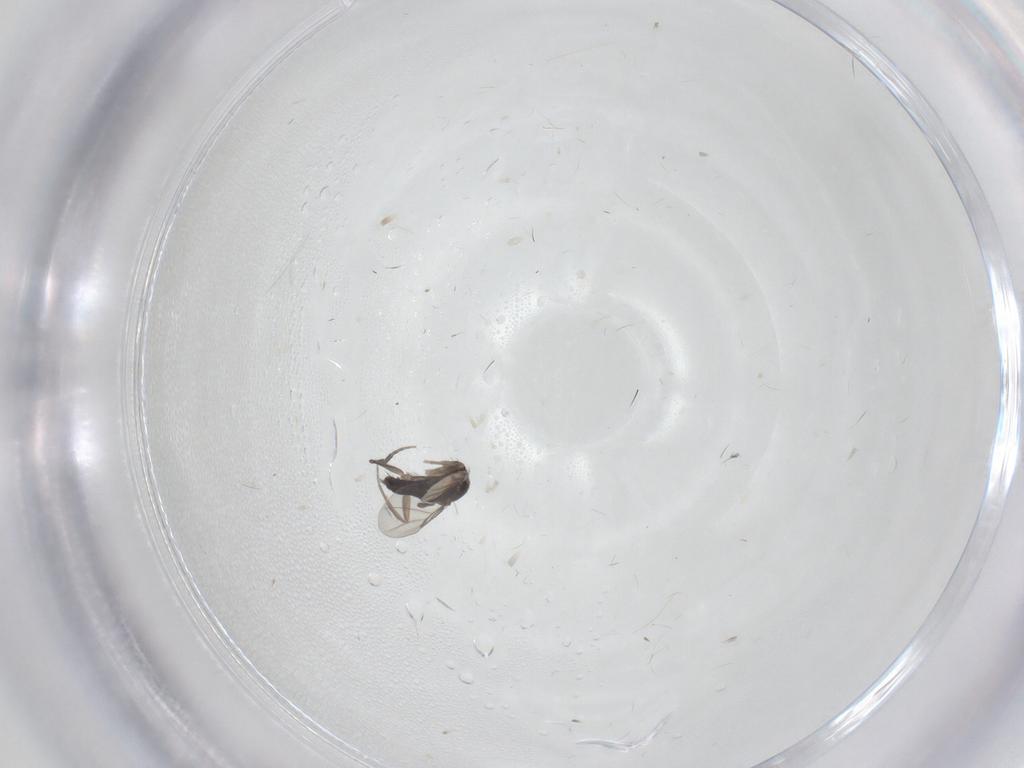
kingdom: Animalia
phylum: Arthropoda
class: Insecta
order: Diptera
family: Phoridae
